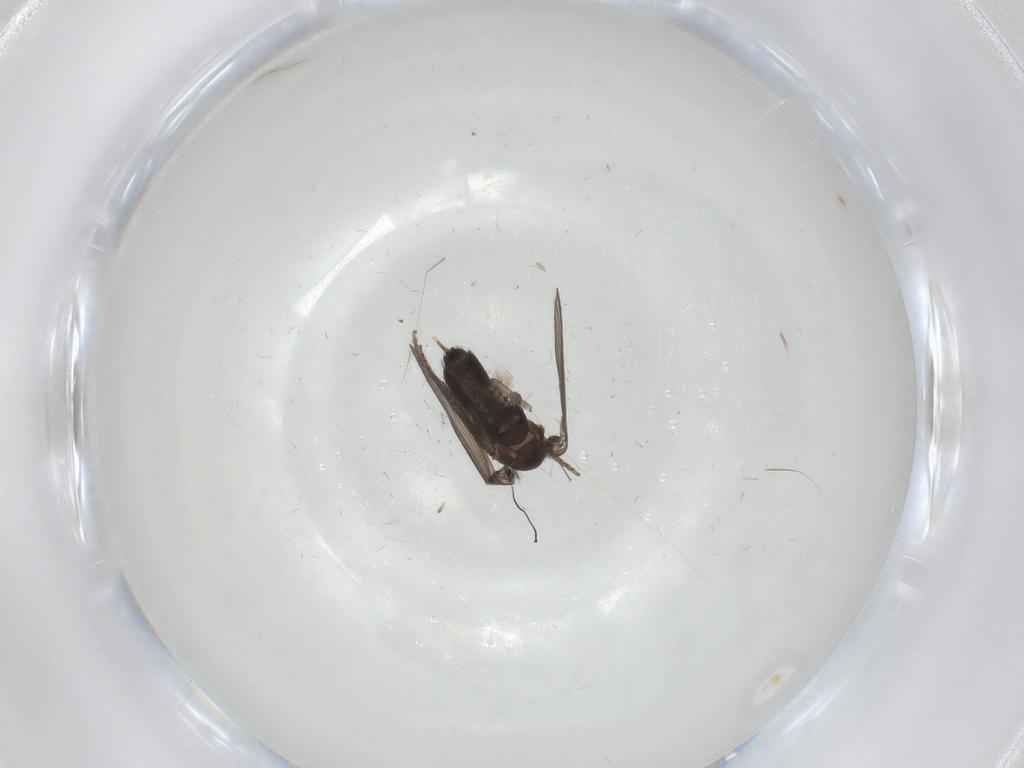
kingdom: Animalia
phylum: Arthropoda
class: Insecta
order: Diptera
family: Psychodidae
